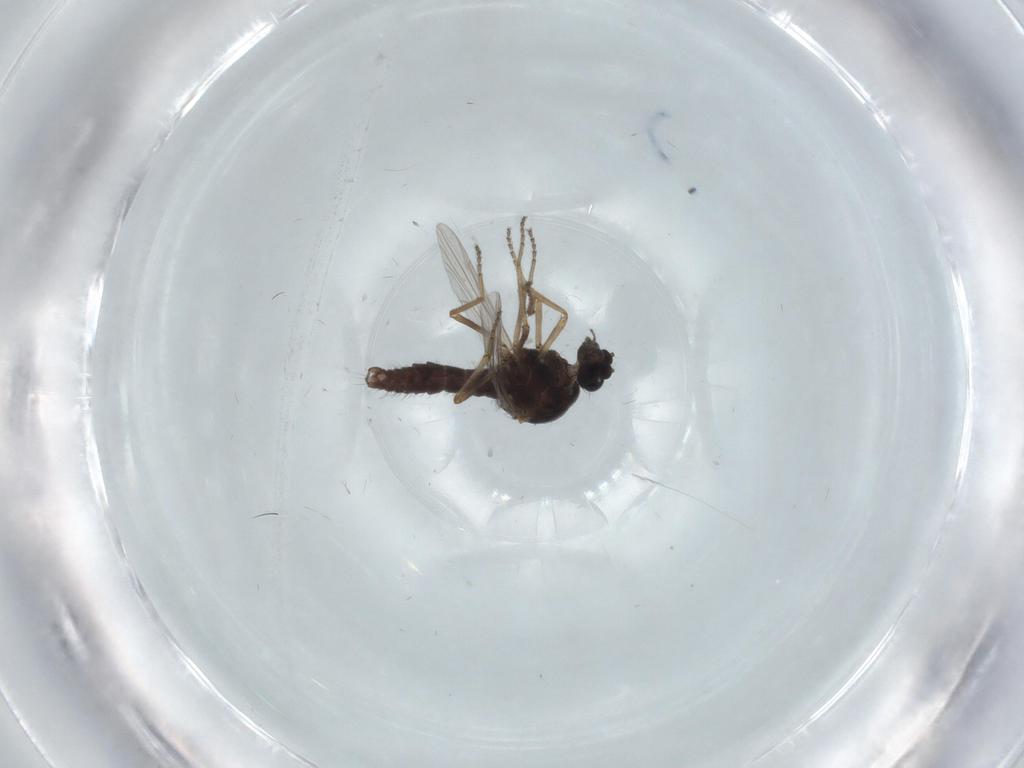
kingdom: Animalia
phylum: Arthropoda
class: Insecta
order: Diptera
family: Ceratopogonidae
